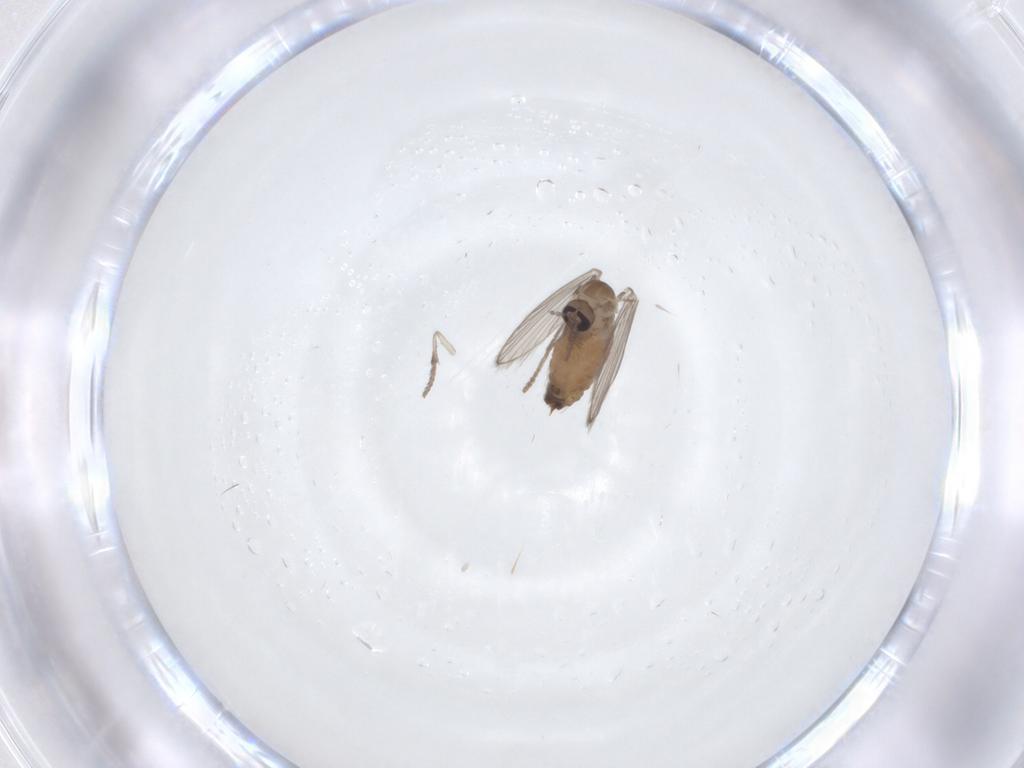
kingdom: Animalia
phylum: Arthropoda
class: Insecta
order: Diptera
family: Psychodidae
